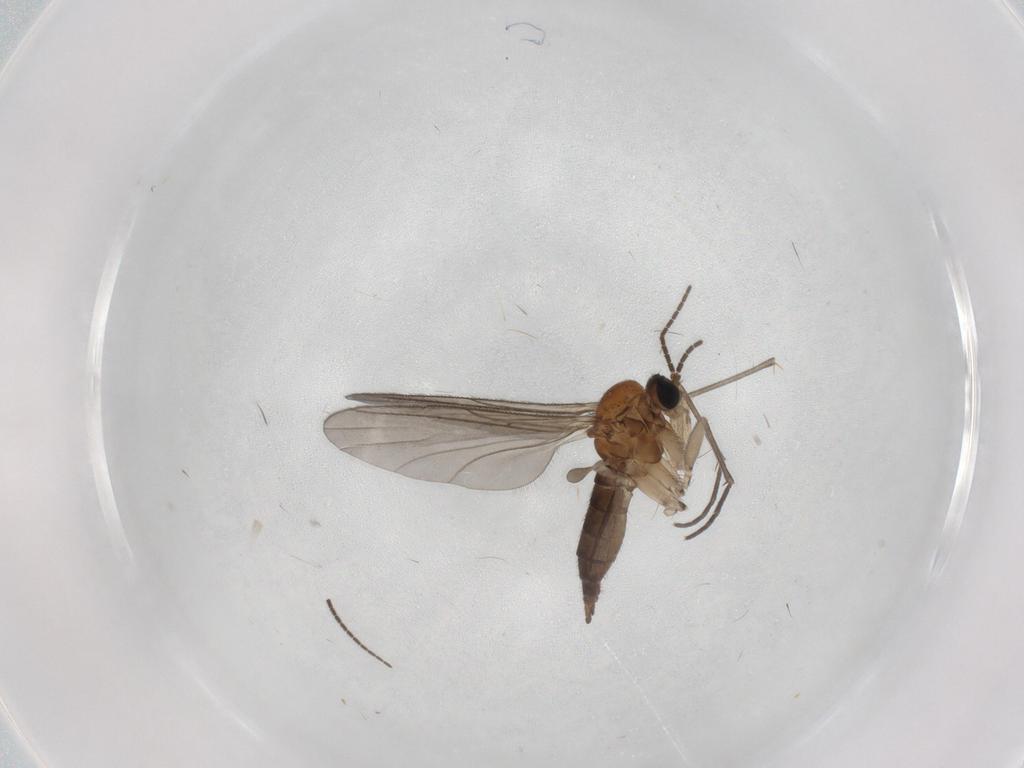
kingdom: Animalia
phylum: Arthropoda
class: Insecta
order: Diptera
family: Sciaridae
